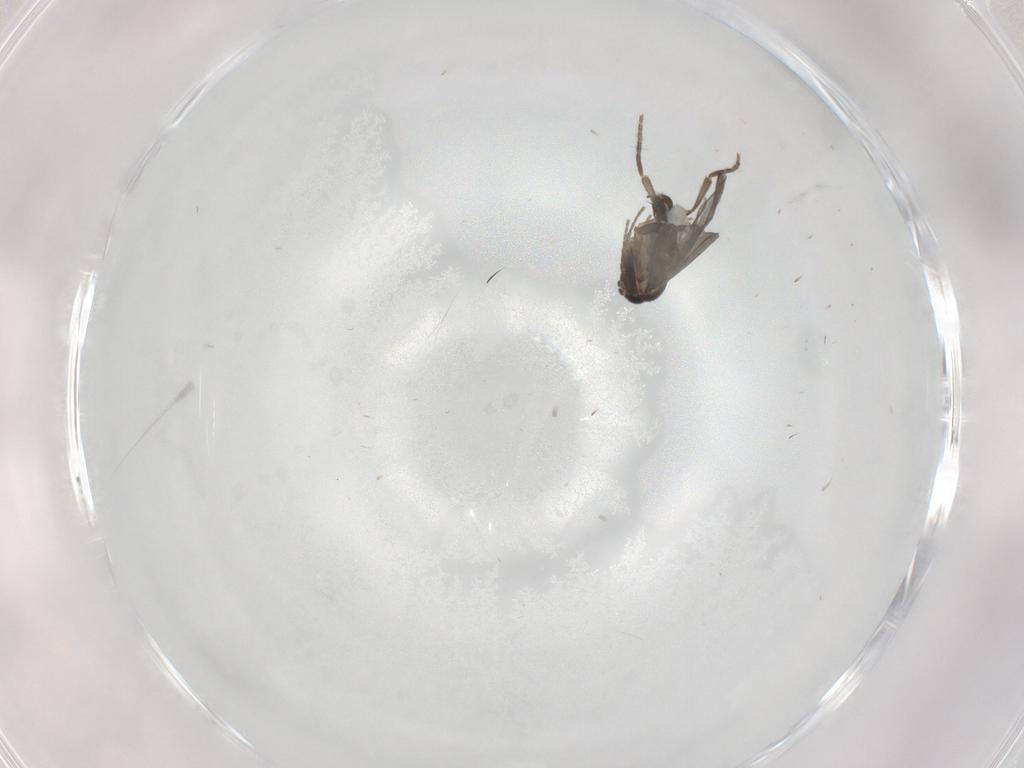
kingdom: Animalia
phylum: Arthropoda
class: Insecta
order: Diptera
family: Phoridae
